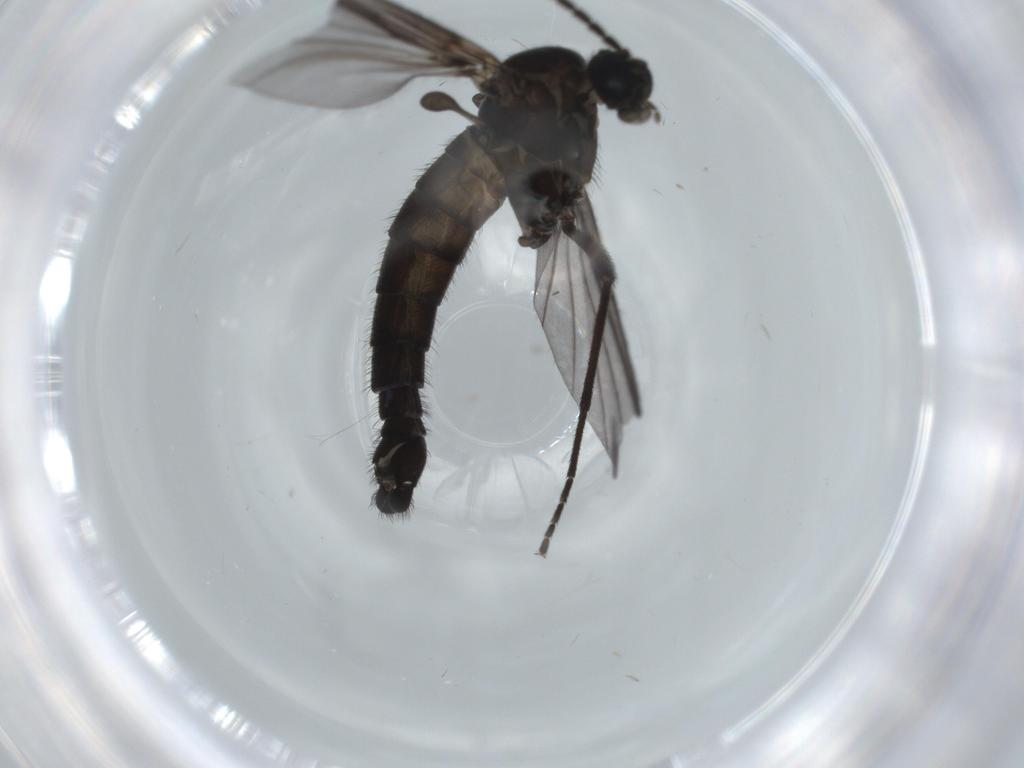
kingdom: Animalia
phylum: Arthropoda
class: Insecta
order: Diptera
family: Sciaridae
